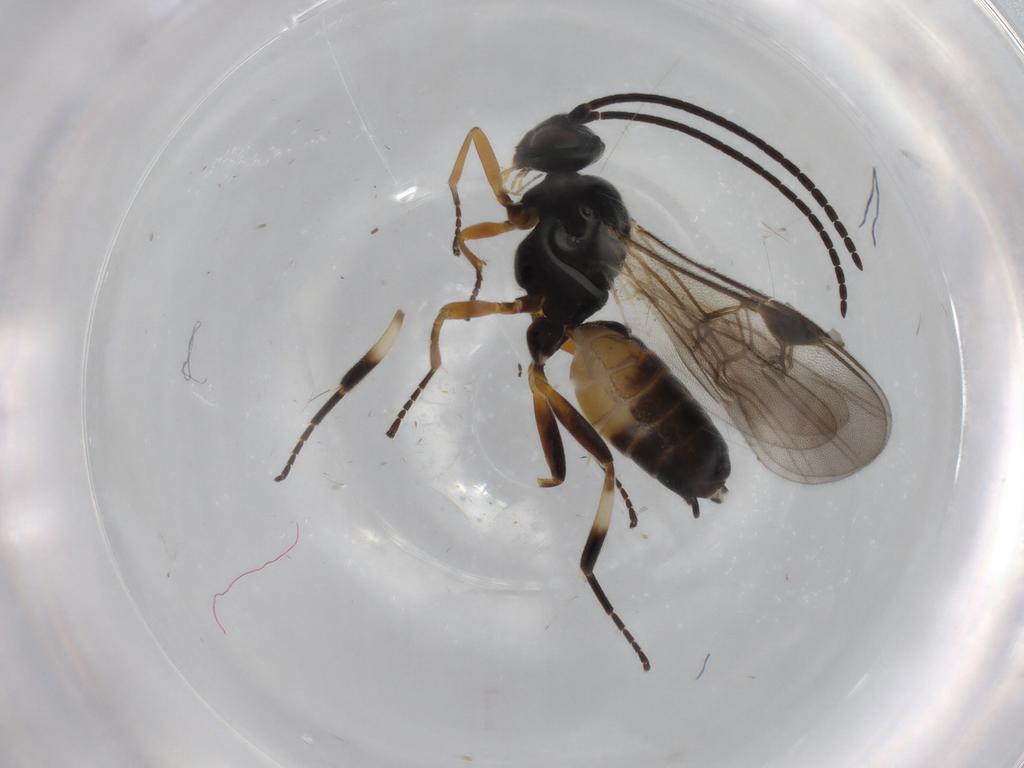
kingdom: Animalia
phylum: Arthropoda
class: Insecta
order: Hymenoptera
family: Braconidae
